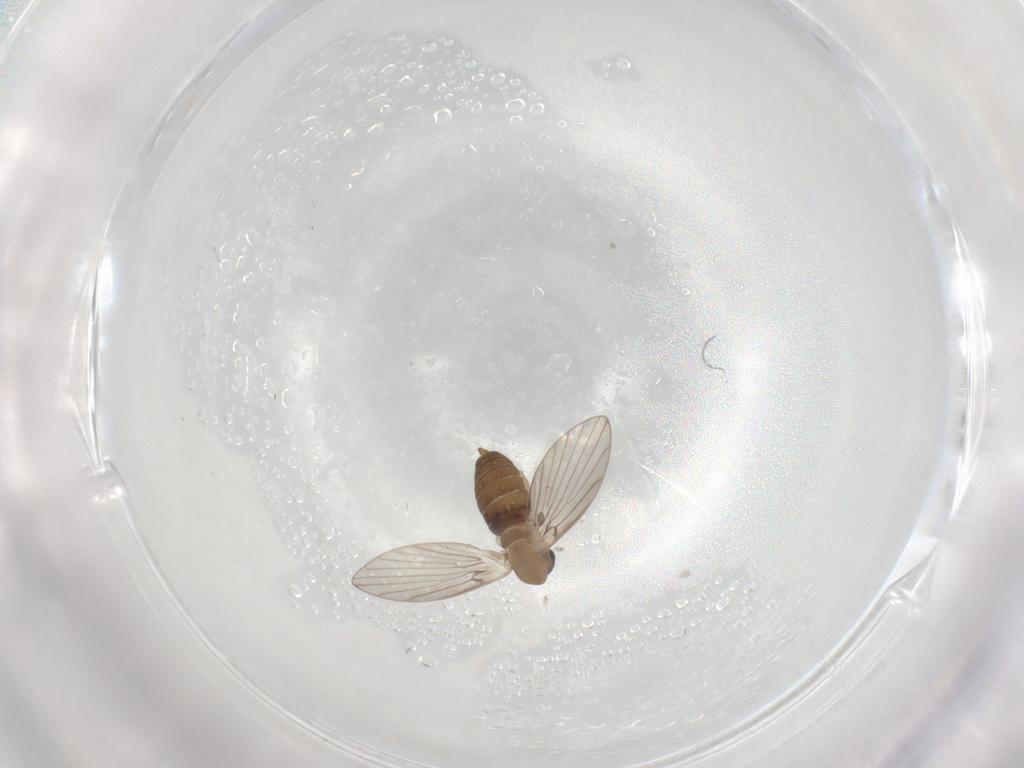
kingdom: Animalia
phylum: Arthropoda
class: Insecta
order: Diptera
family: Psychodidae
